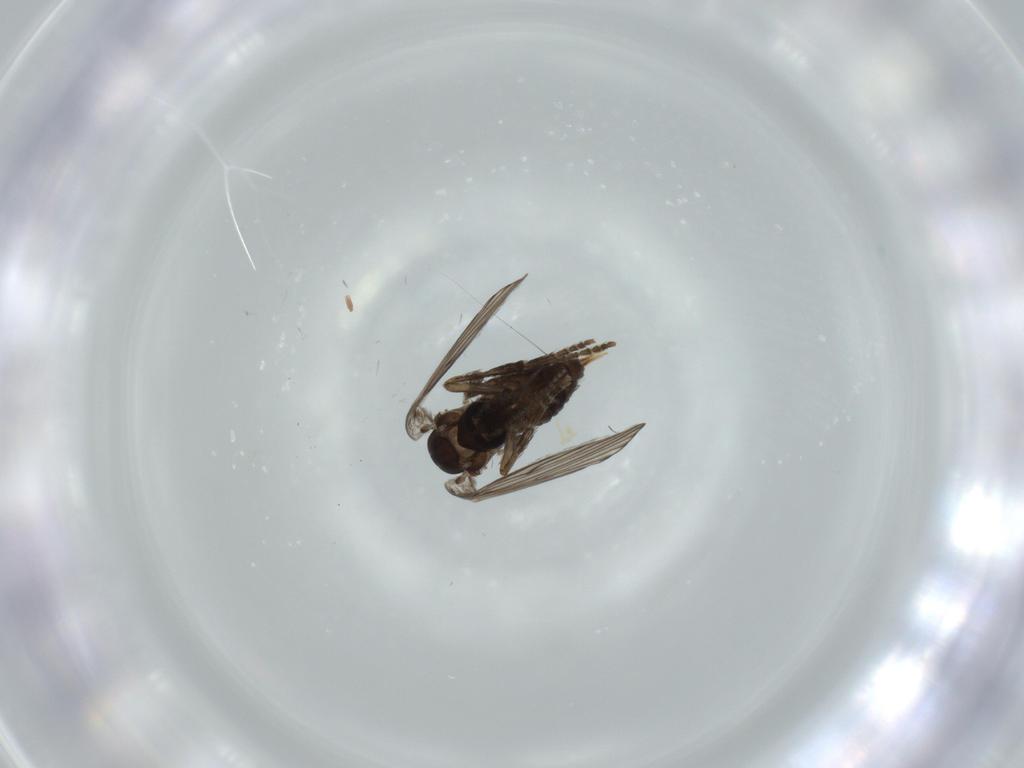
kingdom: Animalia
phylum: Arthropoda
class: Insecta
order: Diptera
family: Psychodidae
